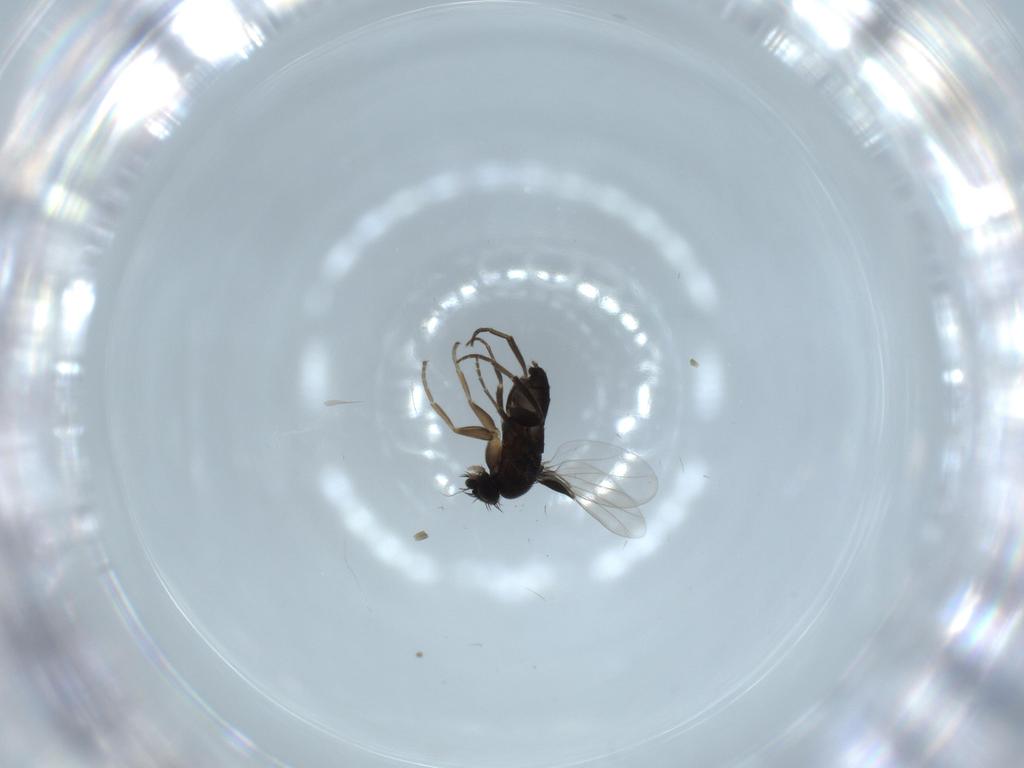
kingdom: Animalia
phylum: Arthropoda
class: Insecta
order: Diptera
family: Phoridae
